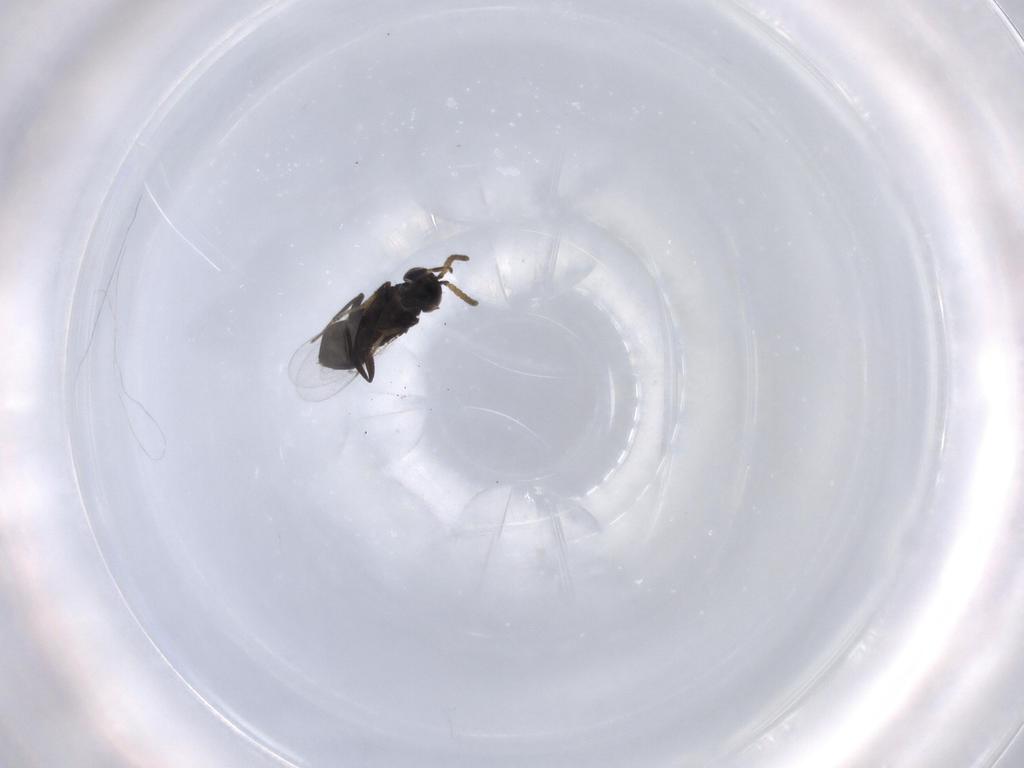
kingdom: Animalia
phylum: Arthropoda
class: Insecta
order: Hymenoptera
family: Encyrtidae
